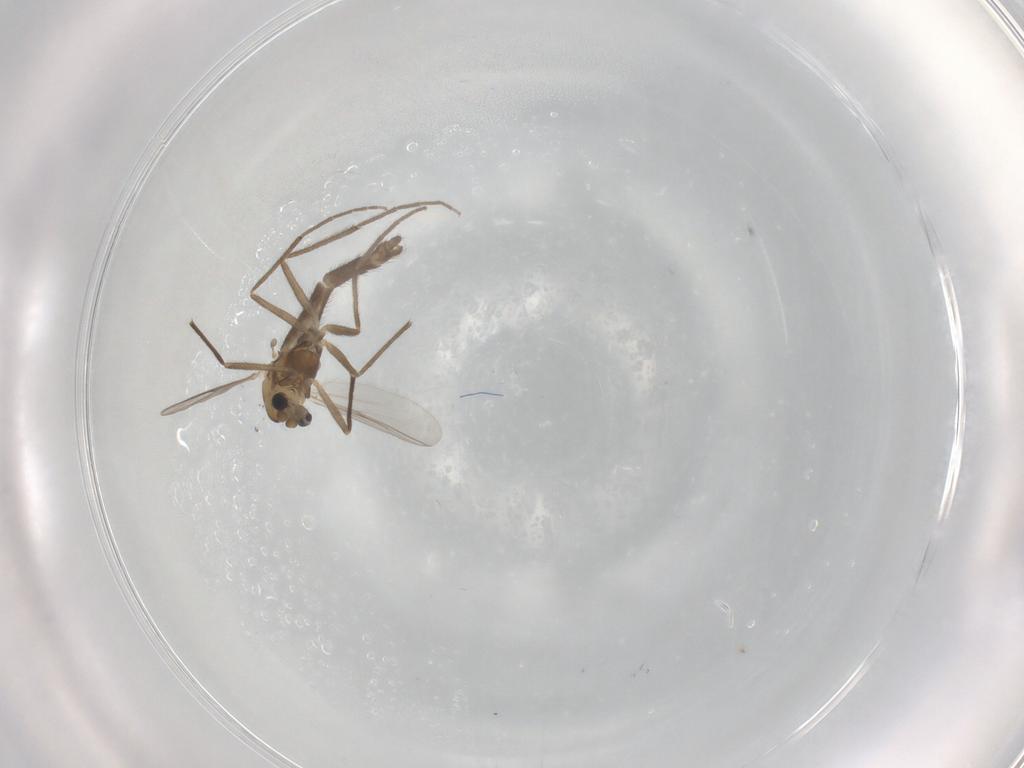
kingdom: Animalia
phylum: Arthropoda
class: Insecta
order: Diptera
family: Chironomidae
